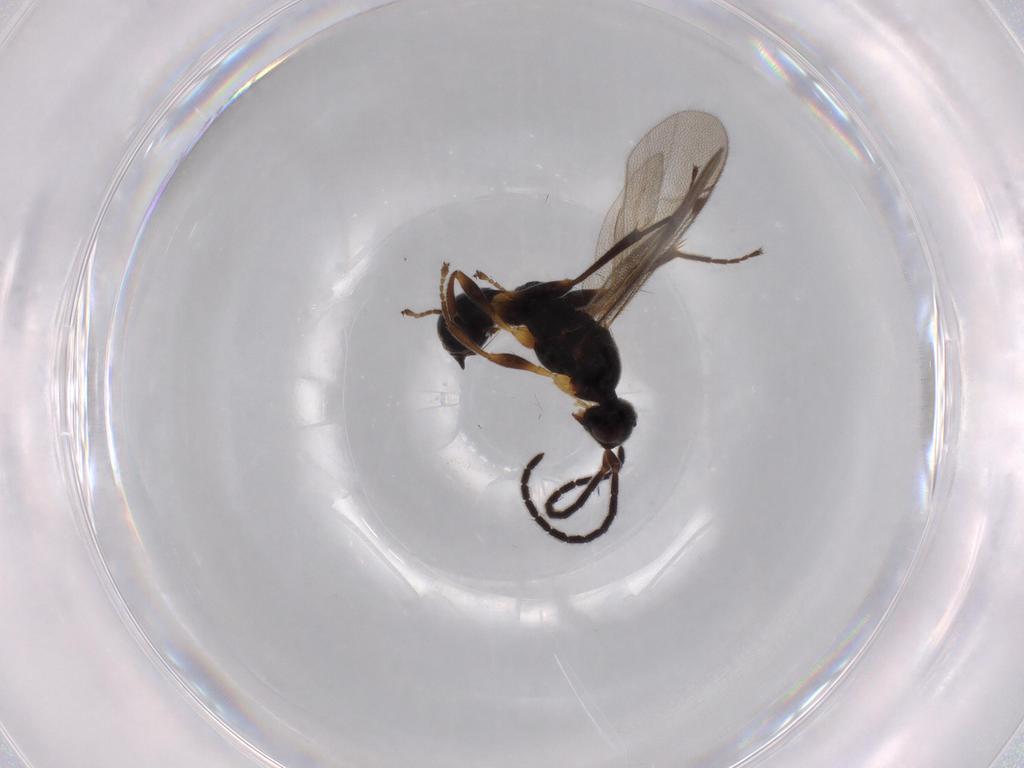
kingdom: Animalia
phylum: Arthropoda
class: Insecta
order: Hymenoptera
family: Proctotrupidae
